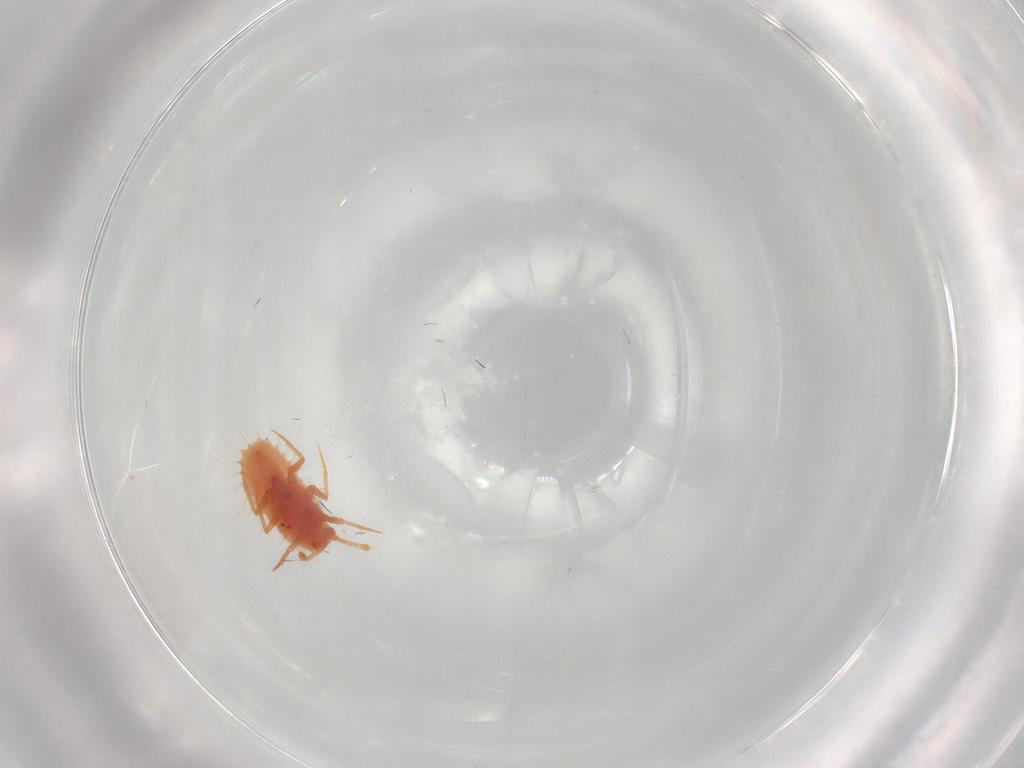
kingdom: Animalia
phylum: Arthropoda
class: Insecta
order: Hemiptera
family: Coccoidea_incertae_sedis
